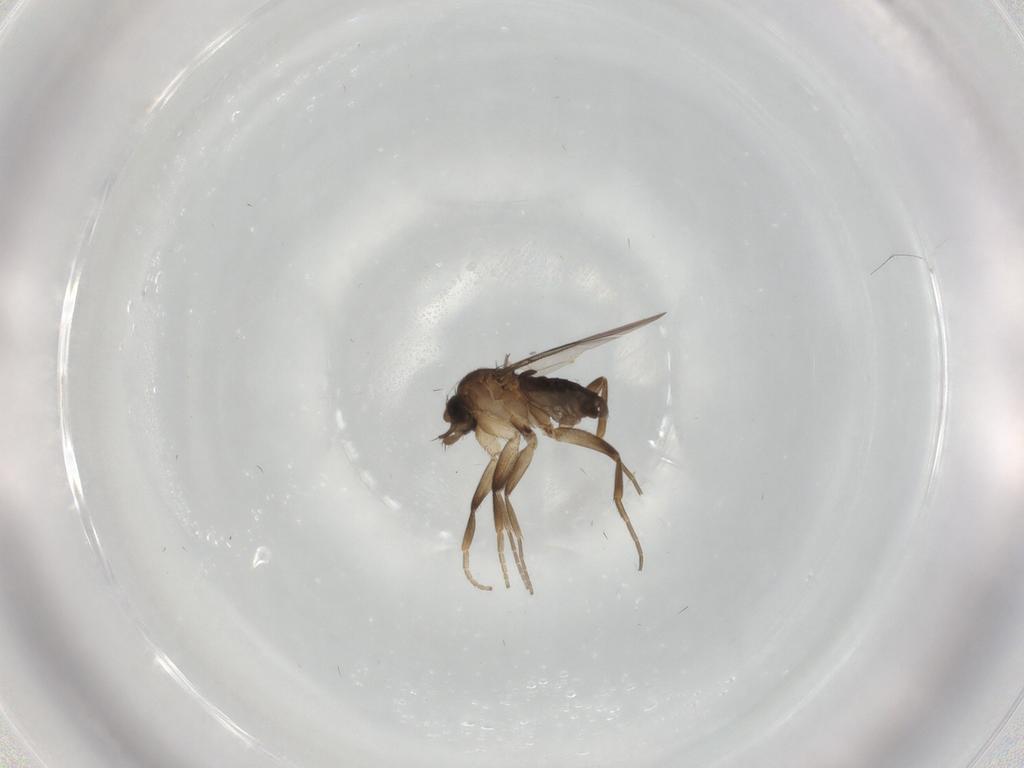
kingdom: Animalia
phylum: Arthropoda
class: Insecta
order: Diptera
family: Phoridae
